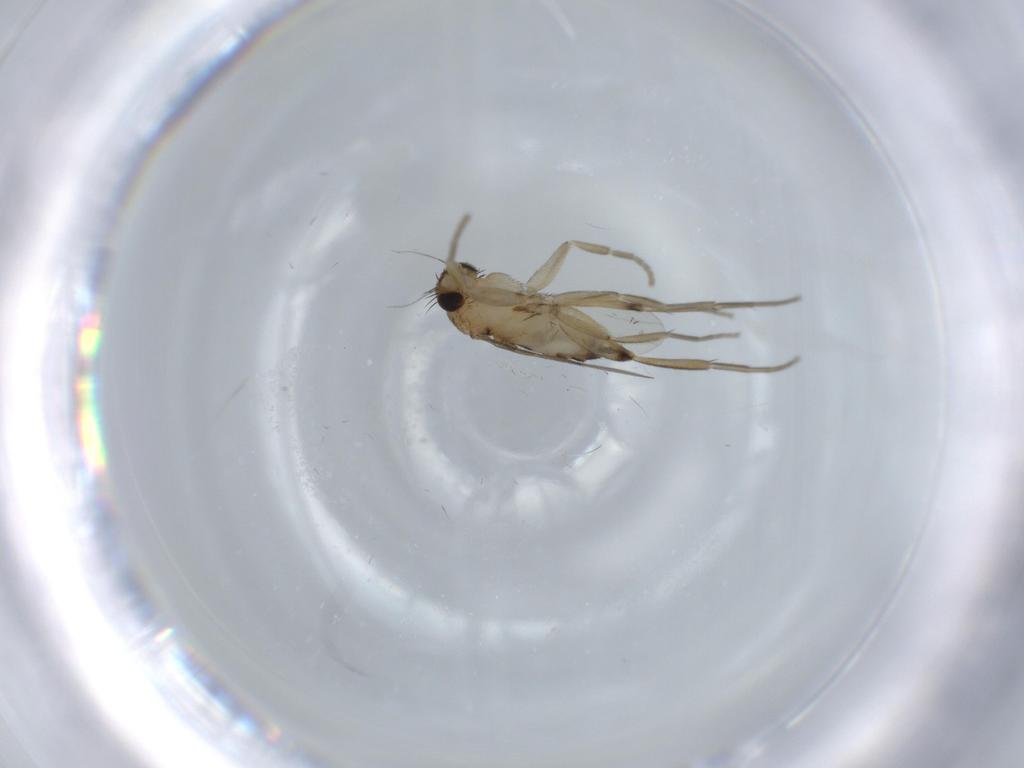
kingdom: Animalia
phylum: Arthropoda
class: Insecta
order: Diptera
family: Phoridae
